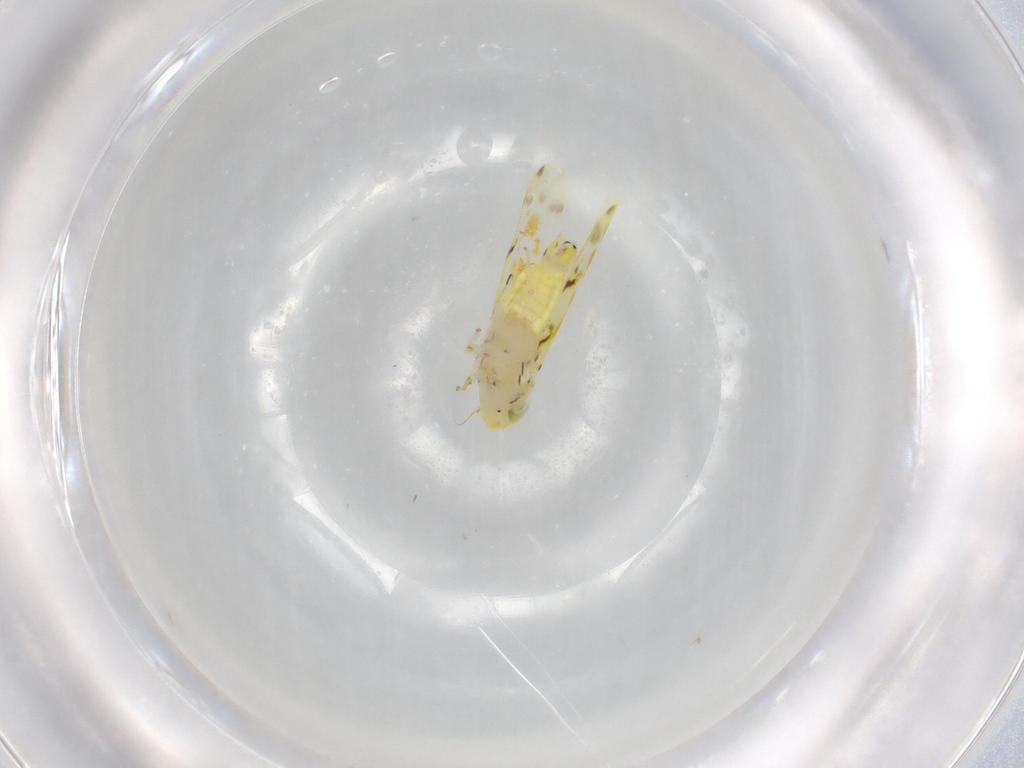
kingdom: Animalia
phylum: Arthropoda
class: Insecta
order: Hemiptera
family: Cicadellidae
